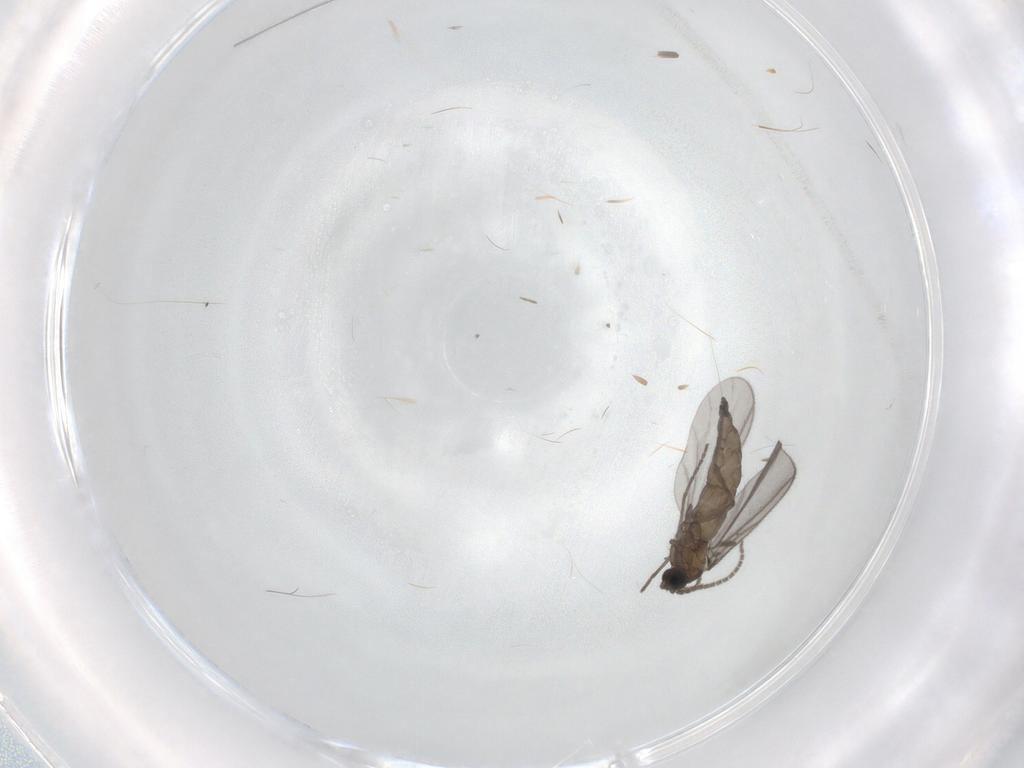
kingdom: Animalia
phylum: Arthropoda
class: Insecta
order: Diptera
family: Sciaridae
